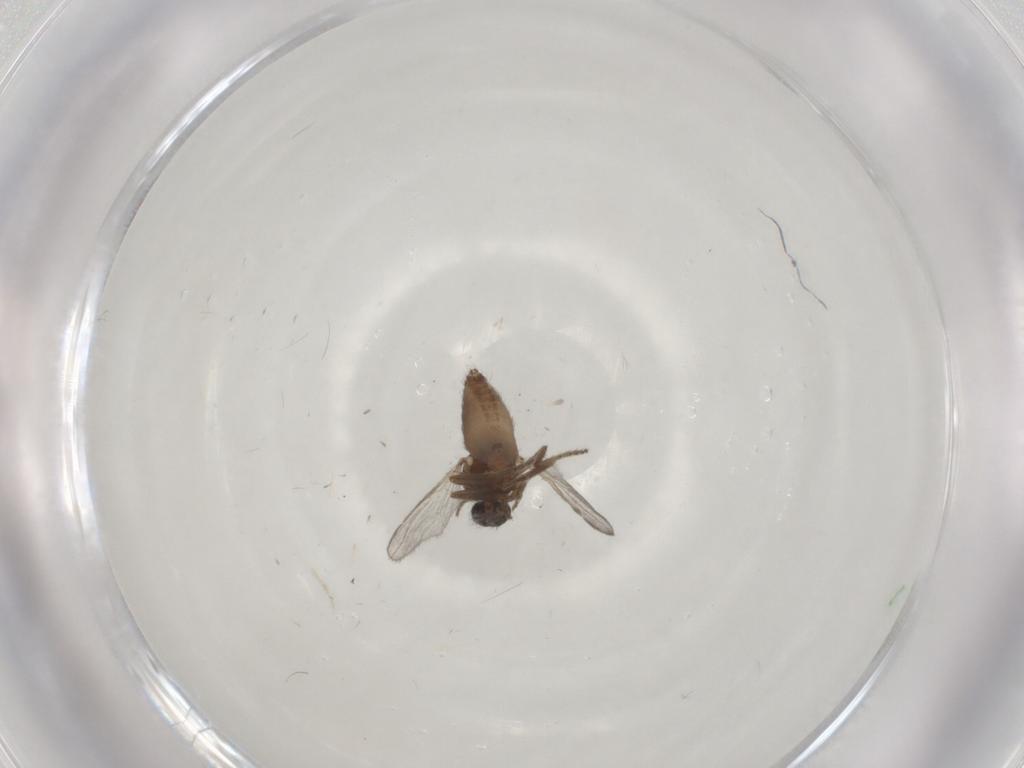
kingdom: Animalia
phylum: Arthropoda
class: Insecta
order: Diptera
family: Ceratopogonidae
